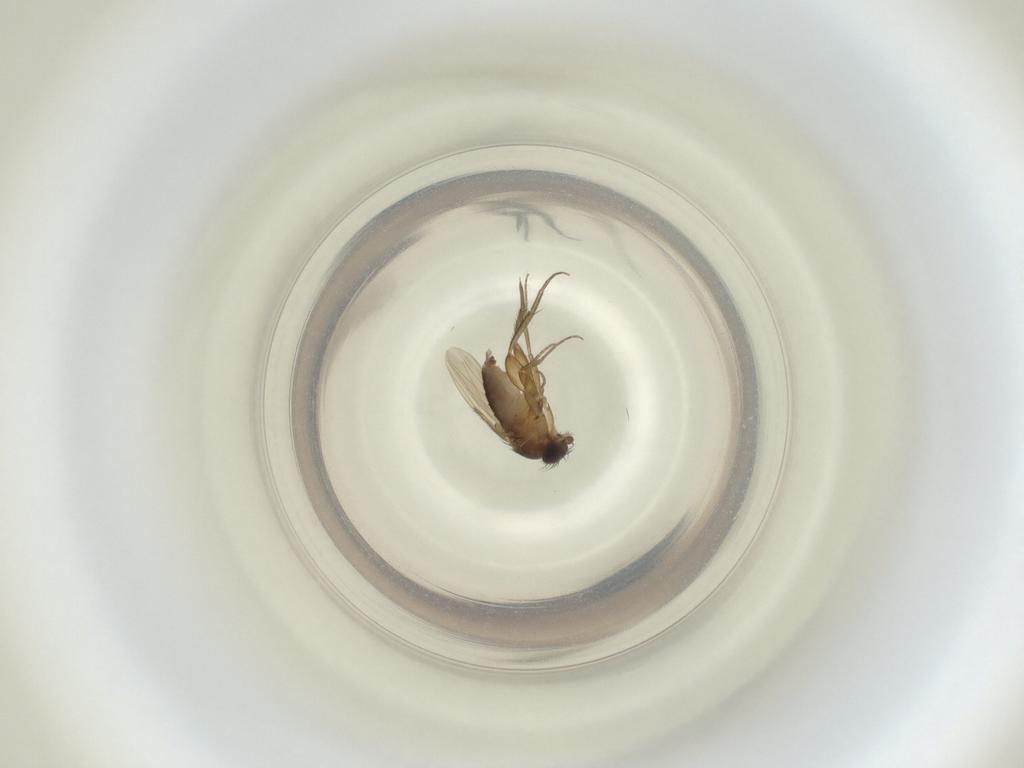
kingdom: Animalia
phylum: Arthropoda
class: Insecta
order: Diptera
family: Phoridae
